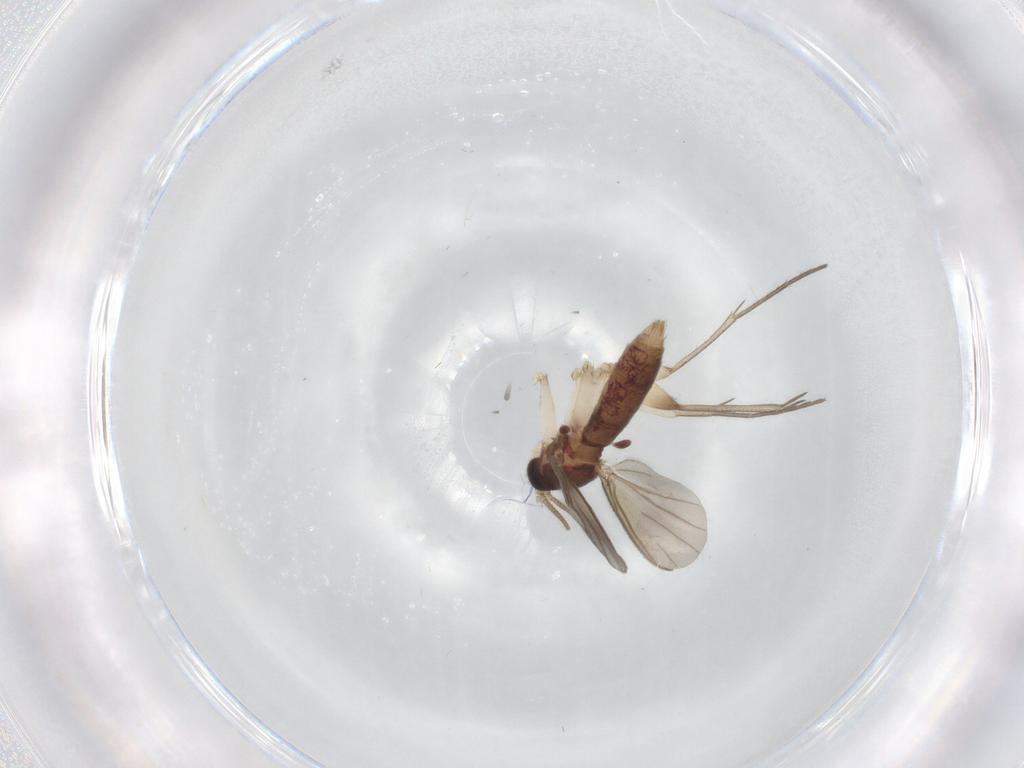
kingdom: Animalia
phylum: Arthropoda
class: Insecta
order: Diptera
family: Mycetophilidae
